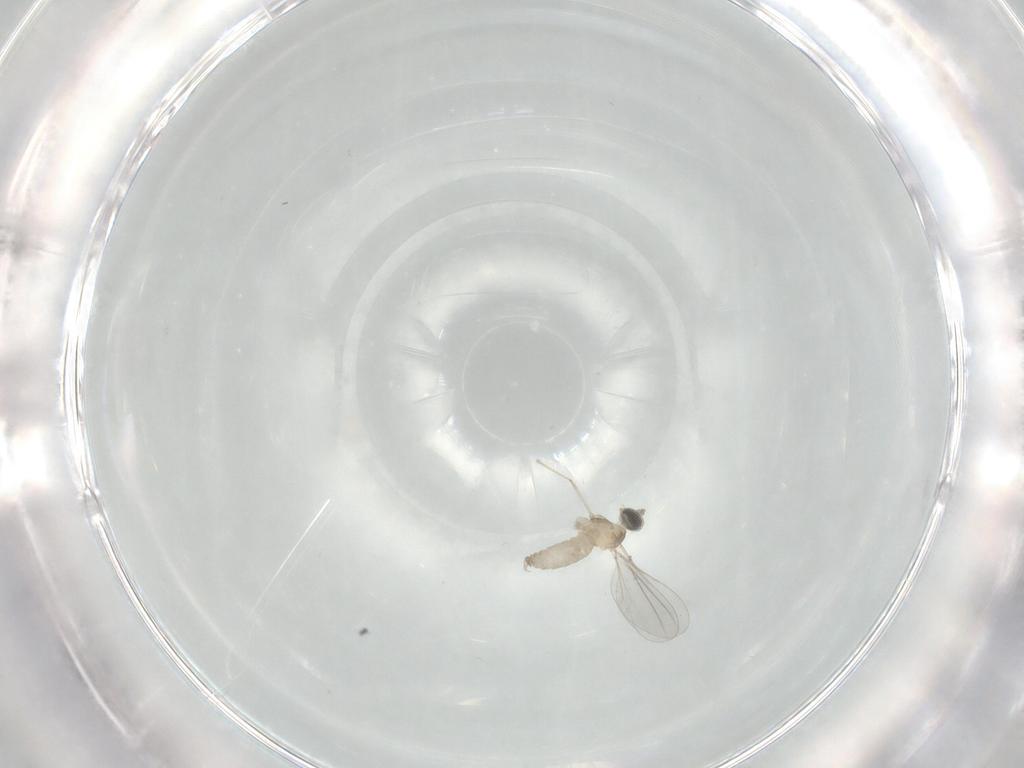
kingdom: Animalia
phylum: Arthropoda
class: Insecta
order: Diptera
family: Cecidomyiidae
